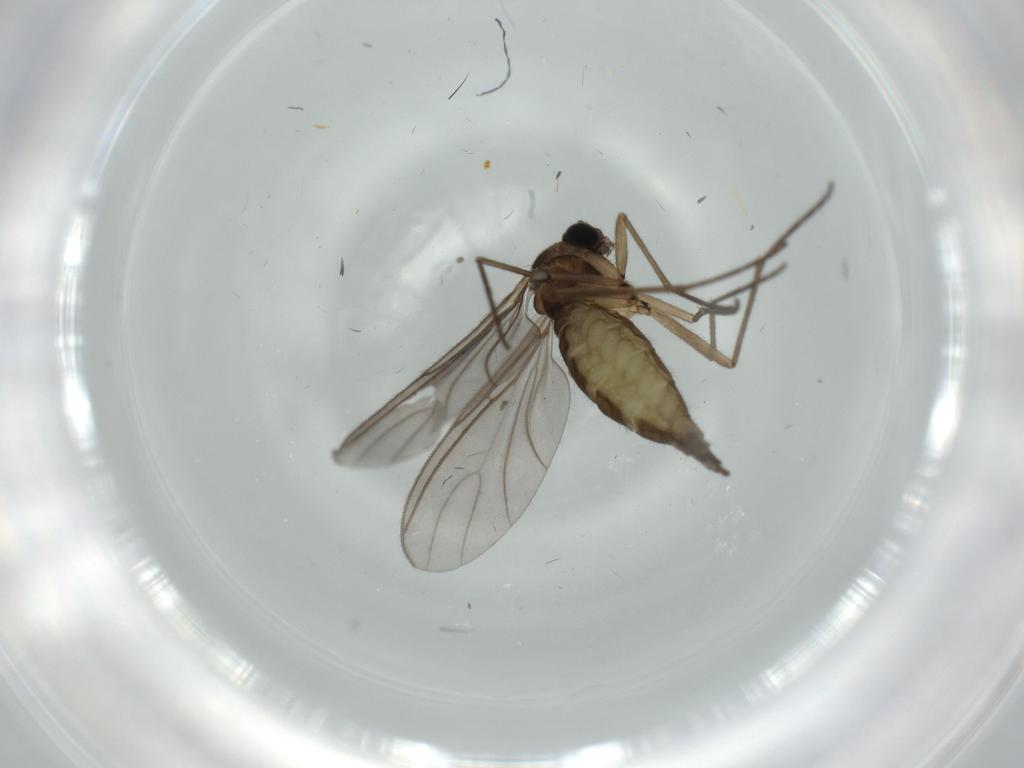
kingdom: Animalia
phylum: Arthropoda
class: Insecta
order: Diptera
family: Sciaridae
